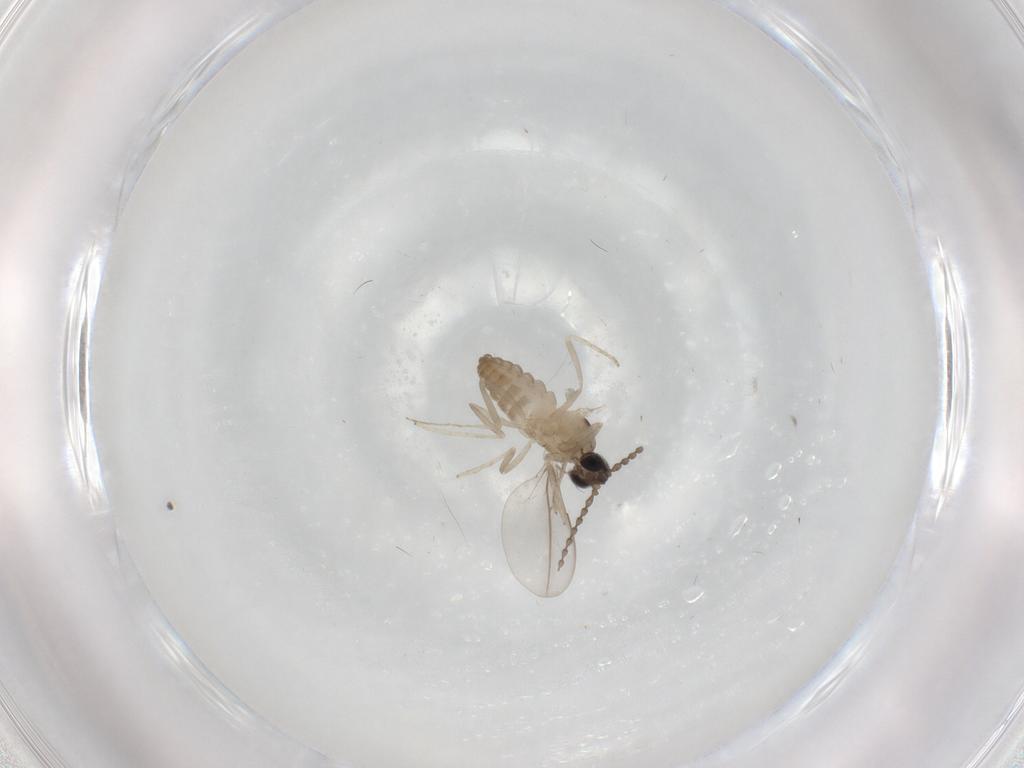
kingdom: Animalia
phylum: Arthropoda
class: Insecta
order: Diptera
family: Cecidomyiidae
